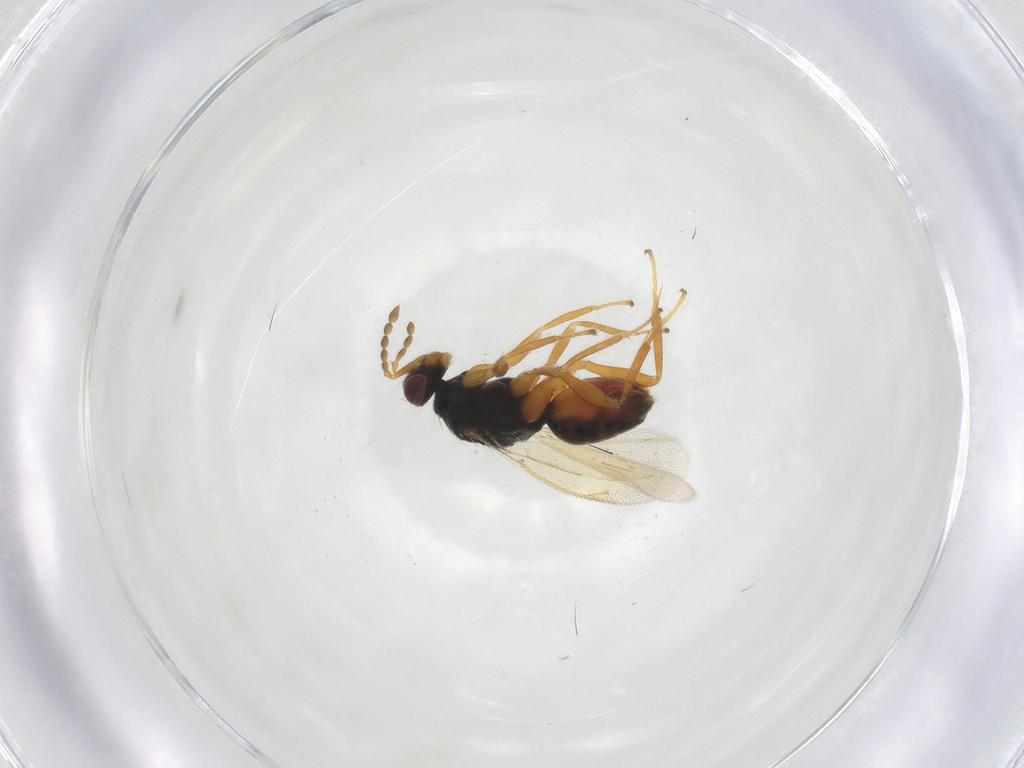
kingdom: Animalia
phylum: Arthropoda
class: Insecta
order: Hymenoptera
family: Eulophidae
